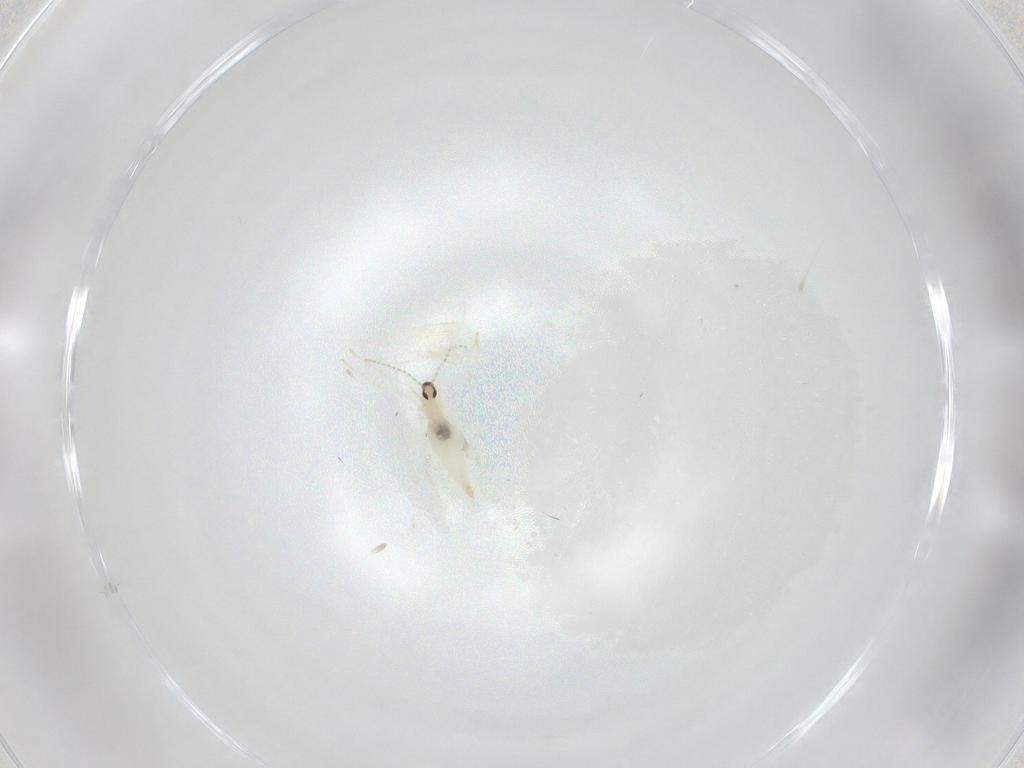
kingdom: Animalia
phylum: Arthropoda
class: Insecta
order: Diptera
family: Cecidomyiidae
